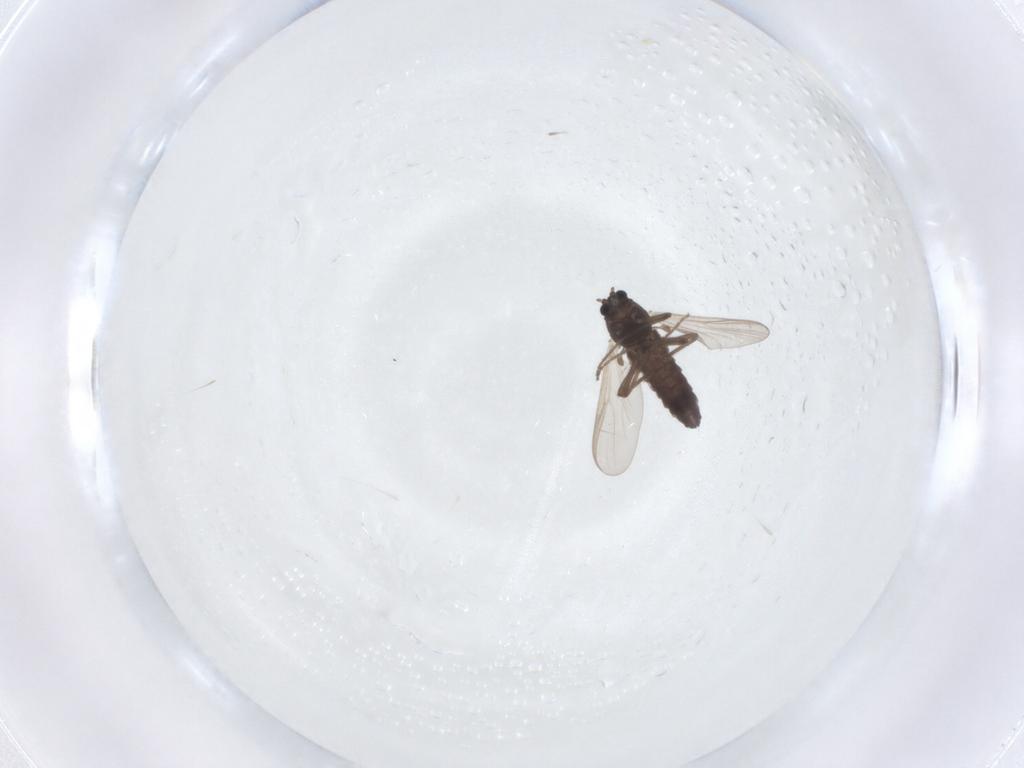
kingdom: Animalia
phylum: Arthropoda
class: Insecta
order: Diptera
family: Chironomidae
